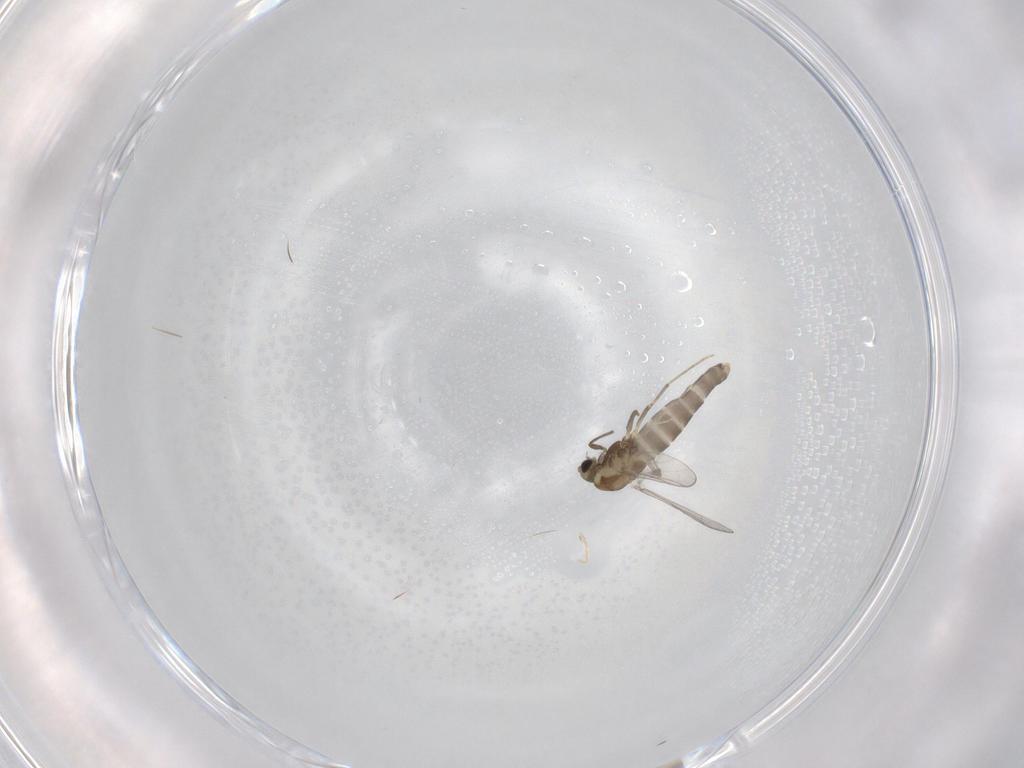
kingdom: Animalia
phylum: Arthropoda
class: Insecta
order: Diptera
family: Chironomidae
